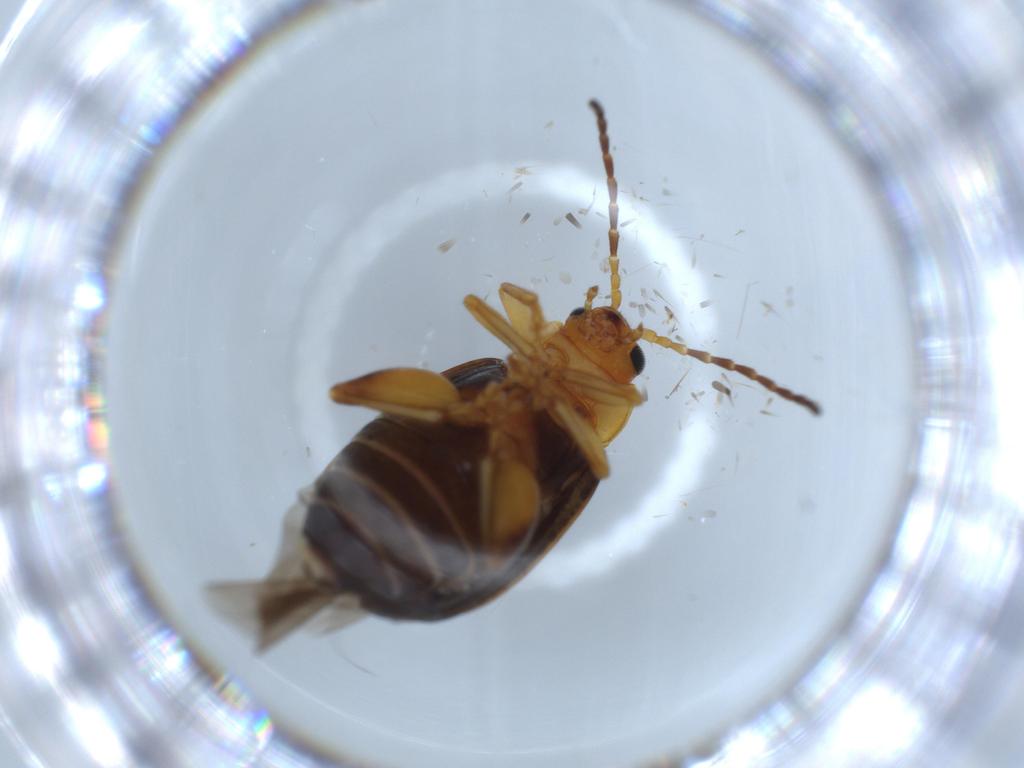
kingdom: Animalia
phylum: Arthropoda
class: Insecta
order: Coleoptera
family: Chrysomelidae
